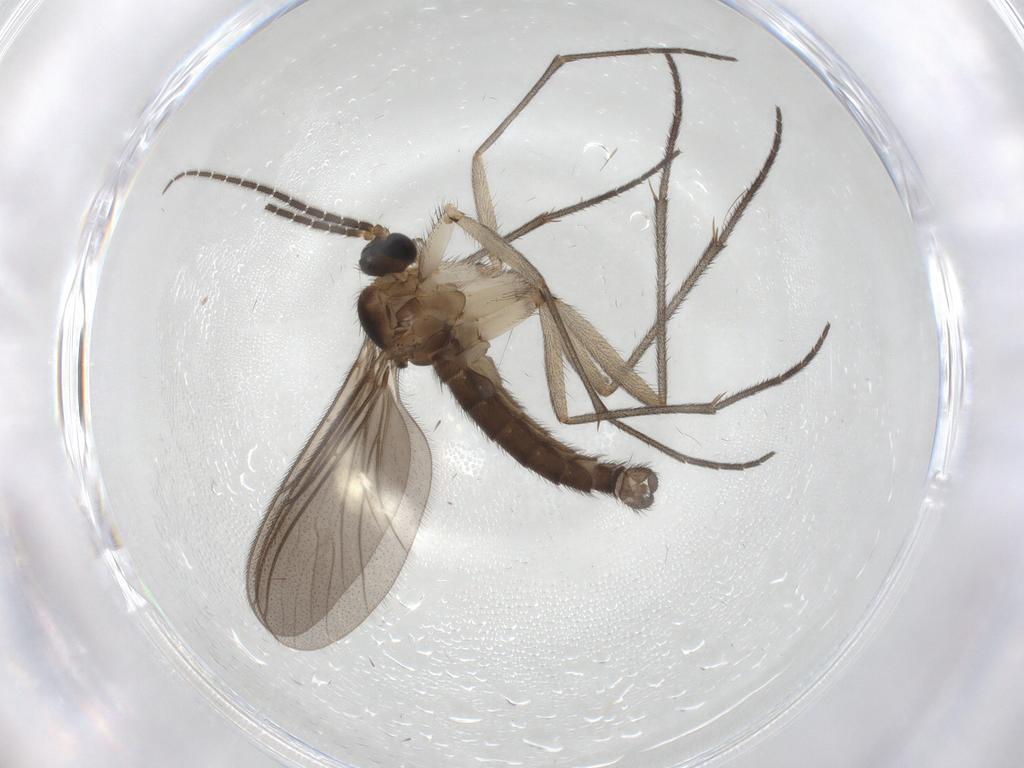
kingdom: Animalia
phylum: Arthropoda
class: Insecta
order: Diptera
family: Sciaridae
